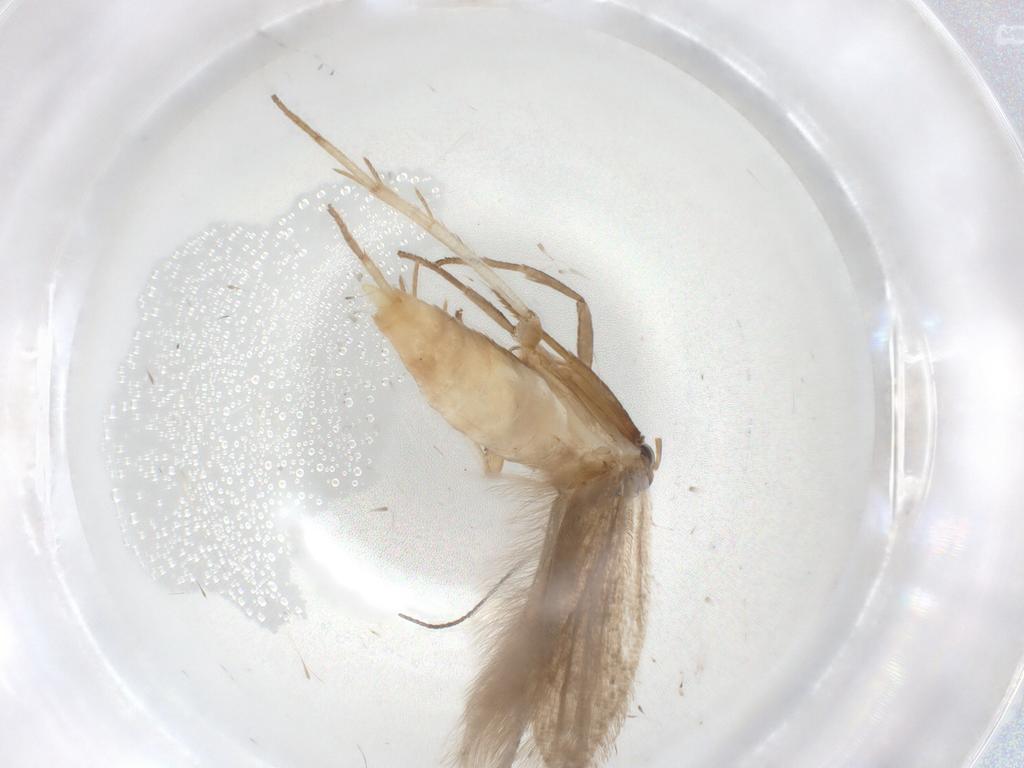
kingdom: Animalia
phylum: Arthropoda
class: Insecta
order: Lepidoptera
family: Gelechiidae
